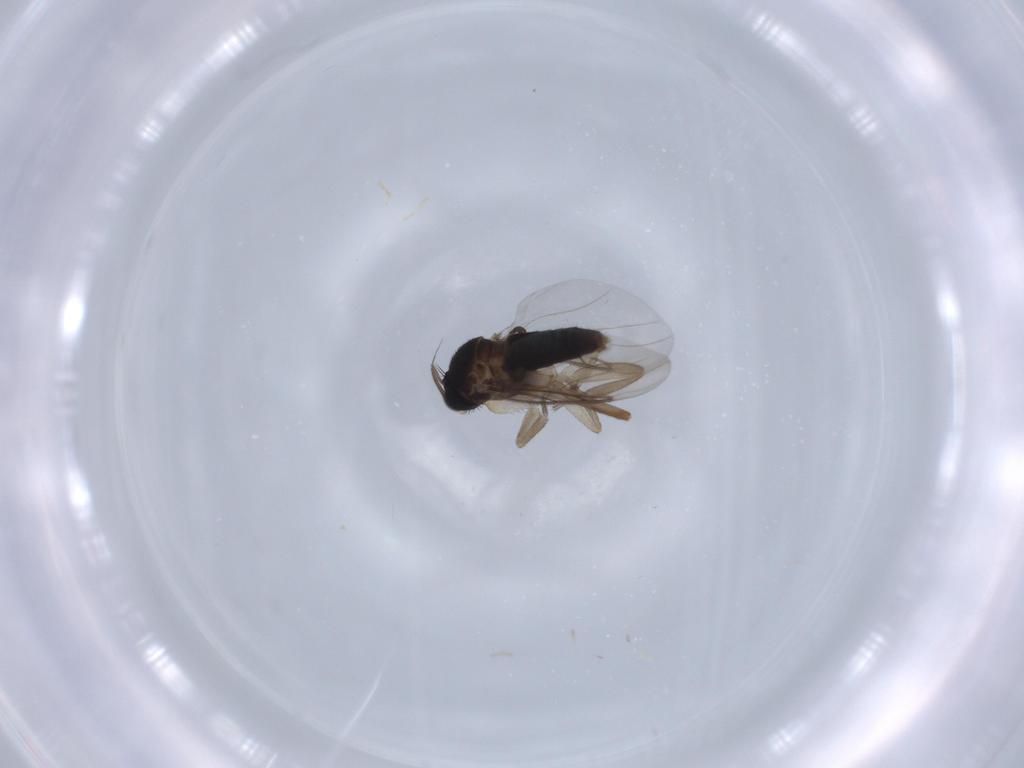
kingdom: Animalia
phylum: Arthropoda
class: Insecta
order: Diptera
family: Phoridae
